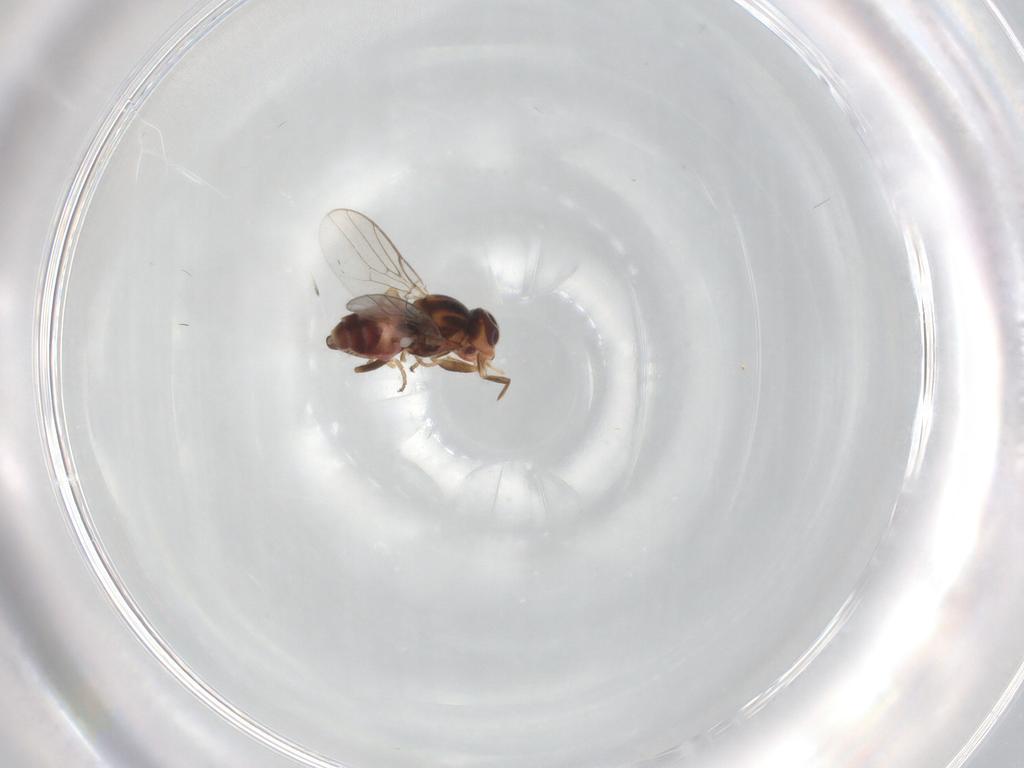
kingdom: Animalia
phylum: Arthropoda
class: Insecta
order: Diptera
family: Chloropidae
